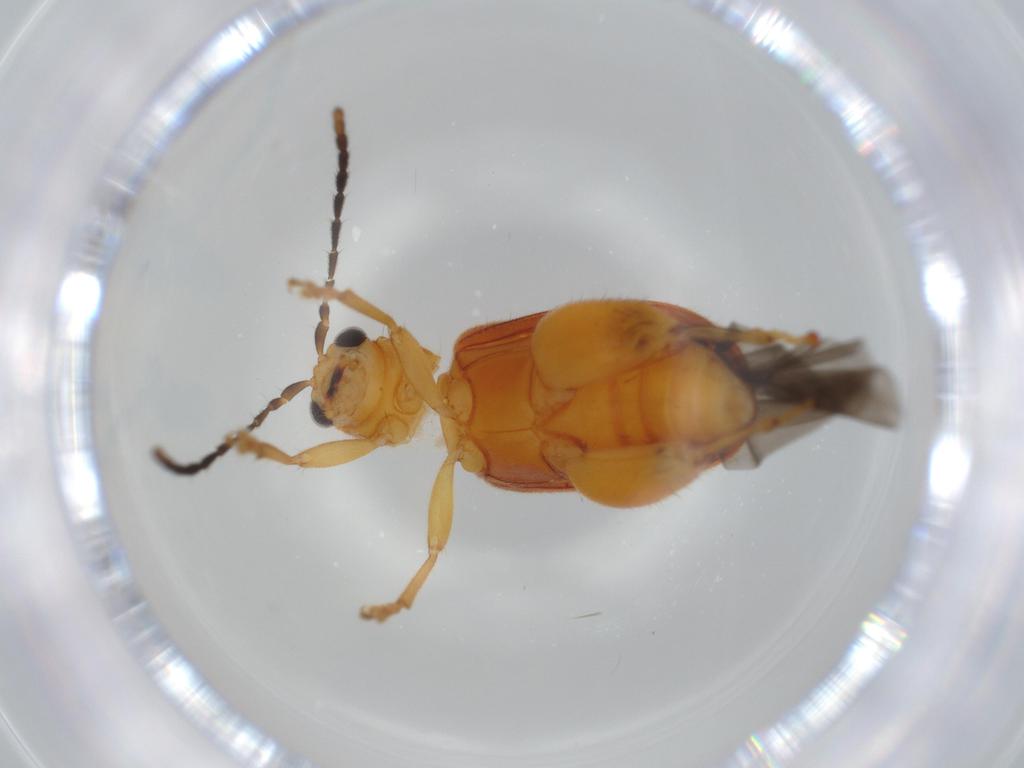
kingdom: Animalia
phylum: Arthropoda
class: Insecta
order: Coleoptera
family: Chrysomelidae
